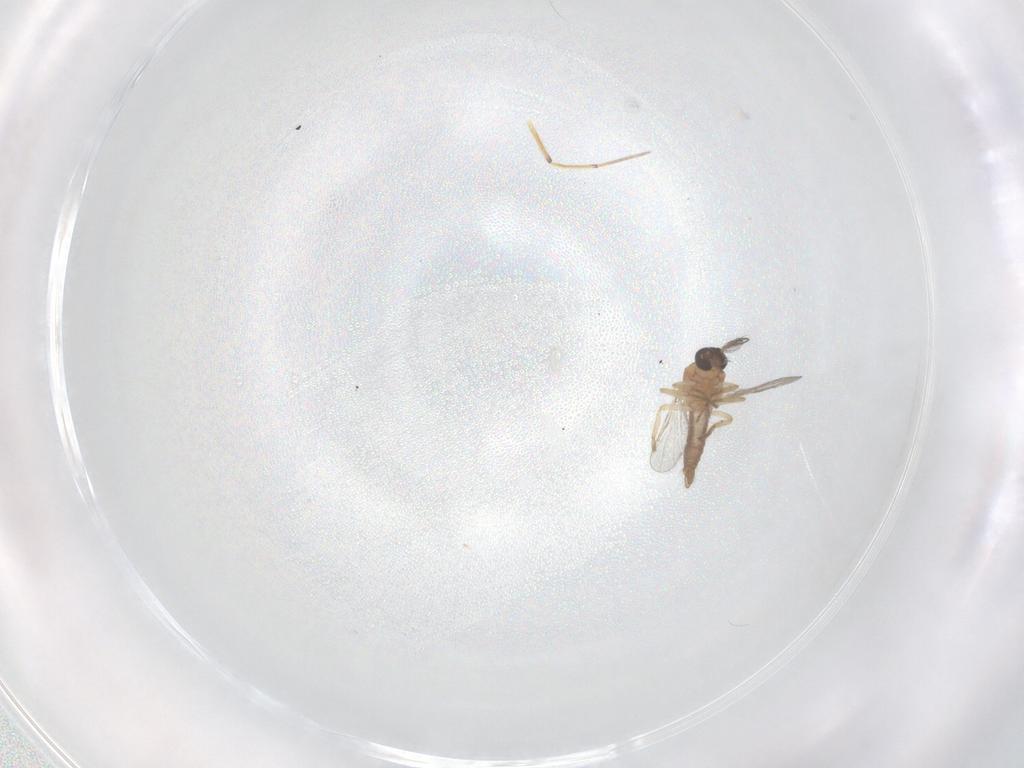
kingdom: Animalia
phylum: Arthropoda
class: Insecta
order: Diptera
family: Ceratopogonidae
